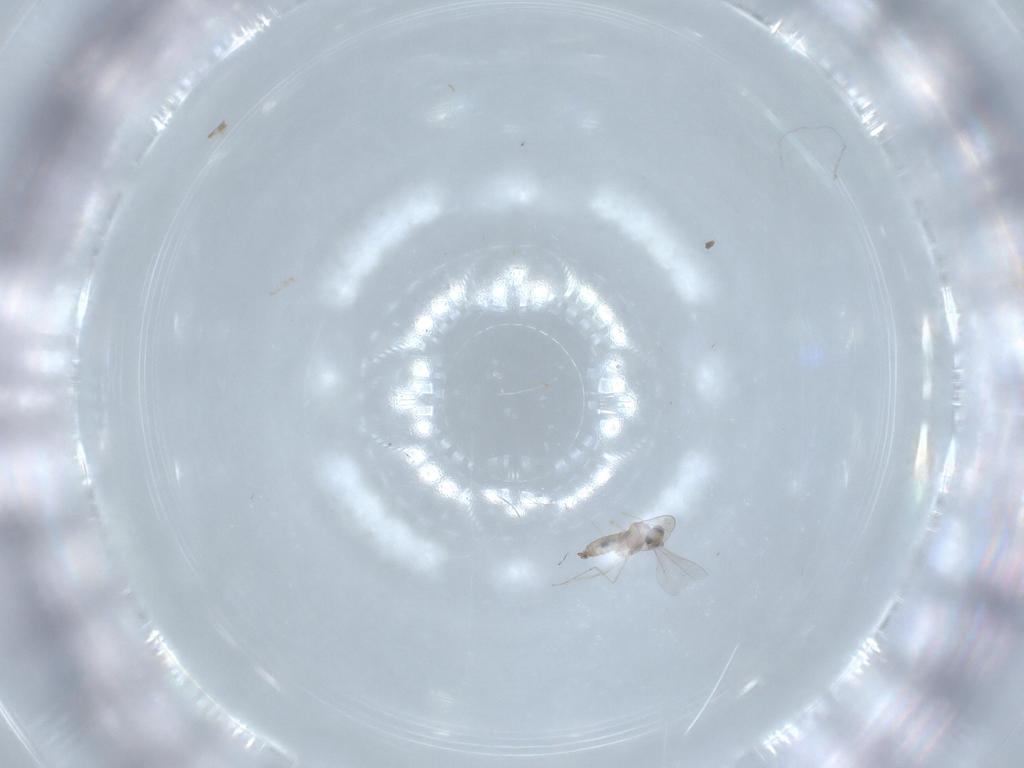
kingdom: Animalia
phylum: Arthropoda
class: Insecta
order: Diptera
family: Cecidomyiidae
